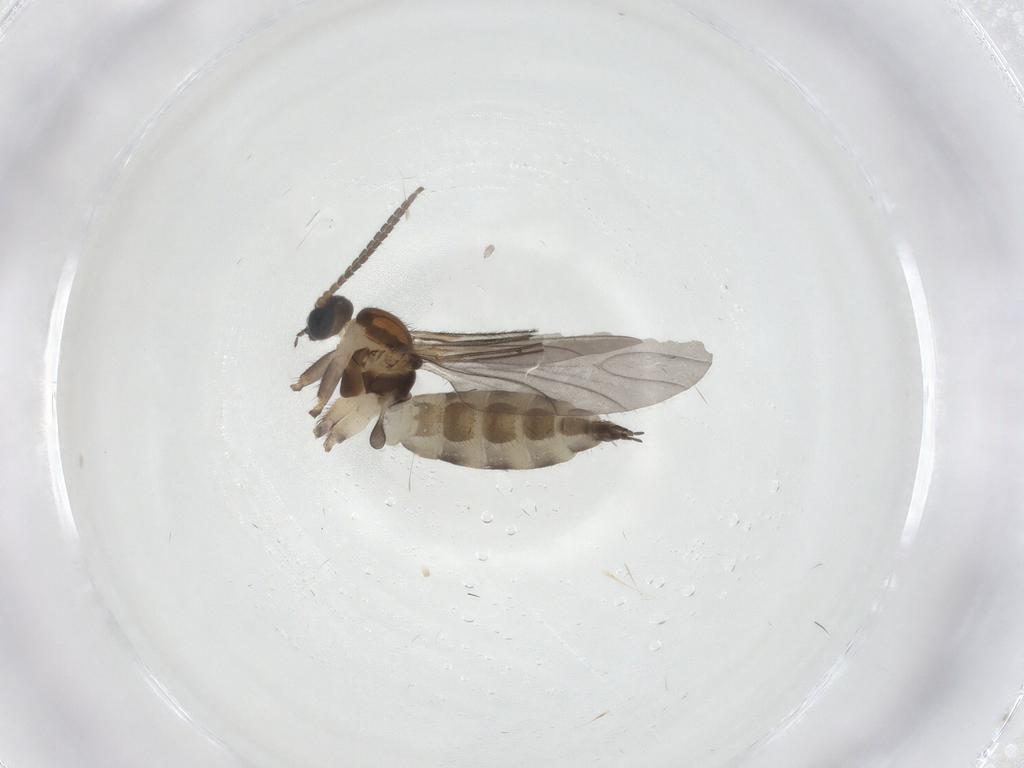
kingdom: Animalia
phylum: Arthropoda
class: Insecta
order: Diptera
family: Sciaridae
